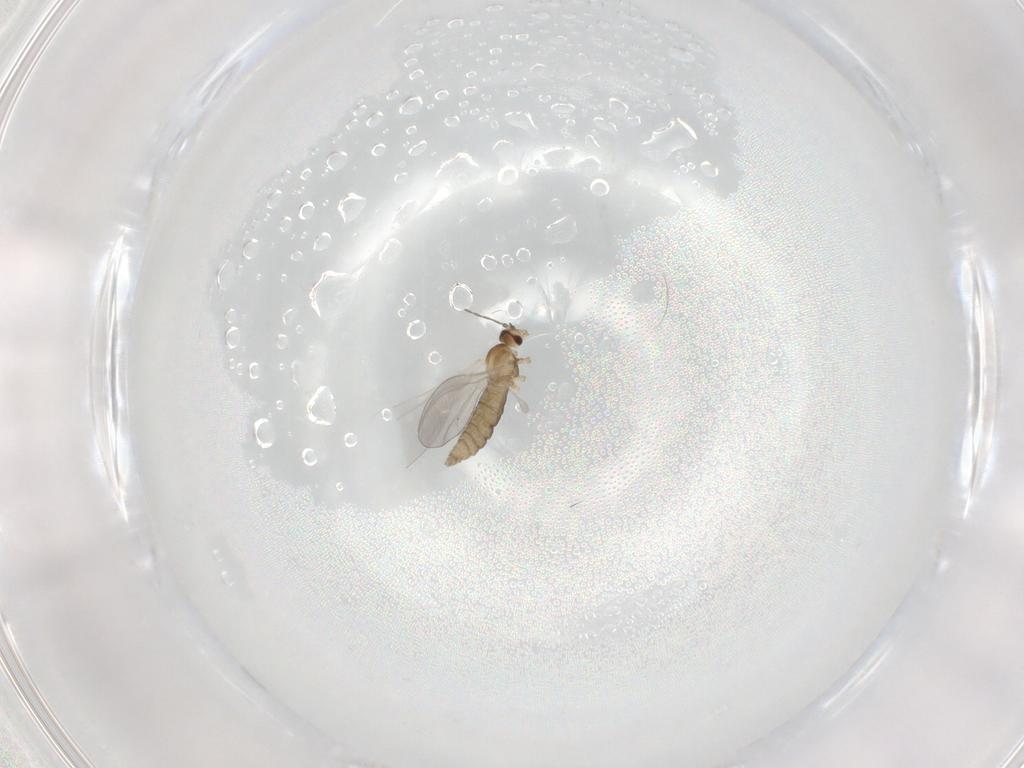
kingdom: Animalia
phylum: Arthropoda
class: Insecta
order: Diptera
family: Cecidomyiidae
